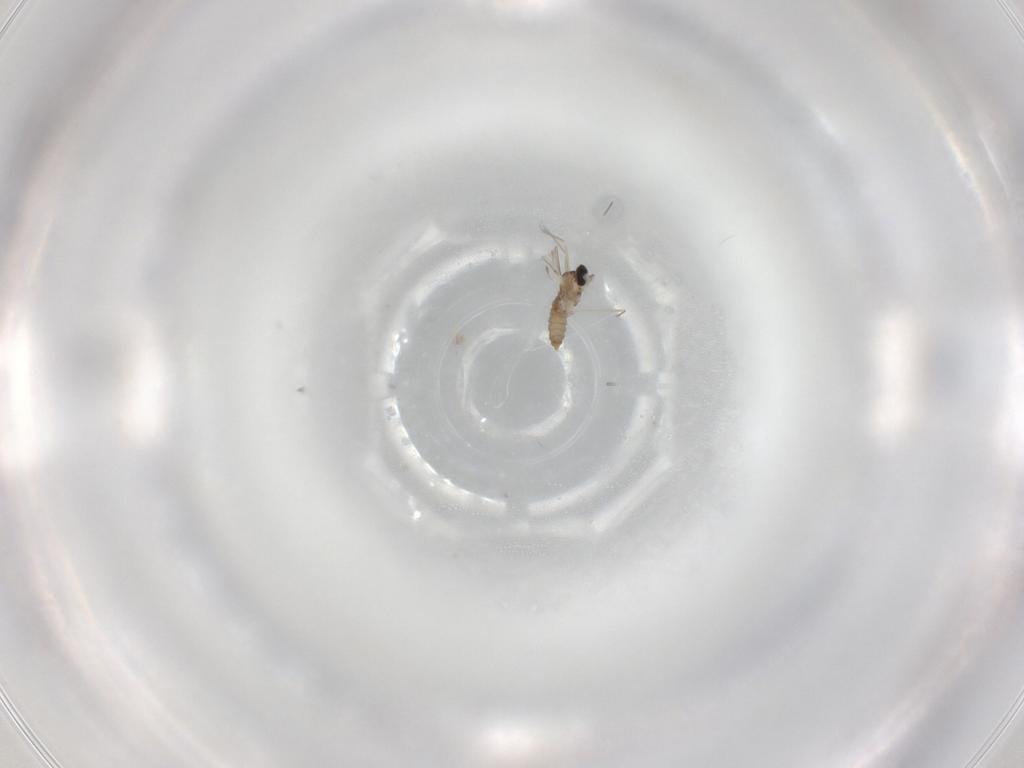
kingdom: Animalia
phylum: Arthropoda
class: Insecta
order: Diptera
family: Cecidomyiidae
